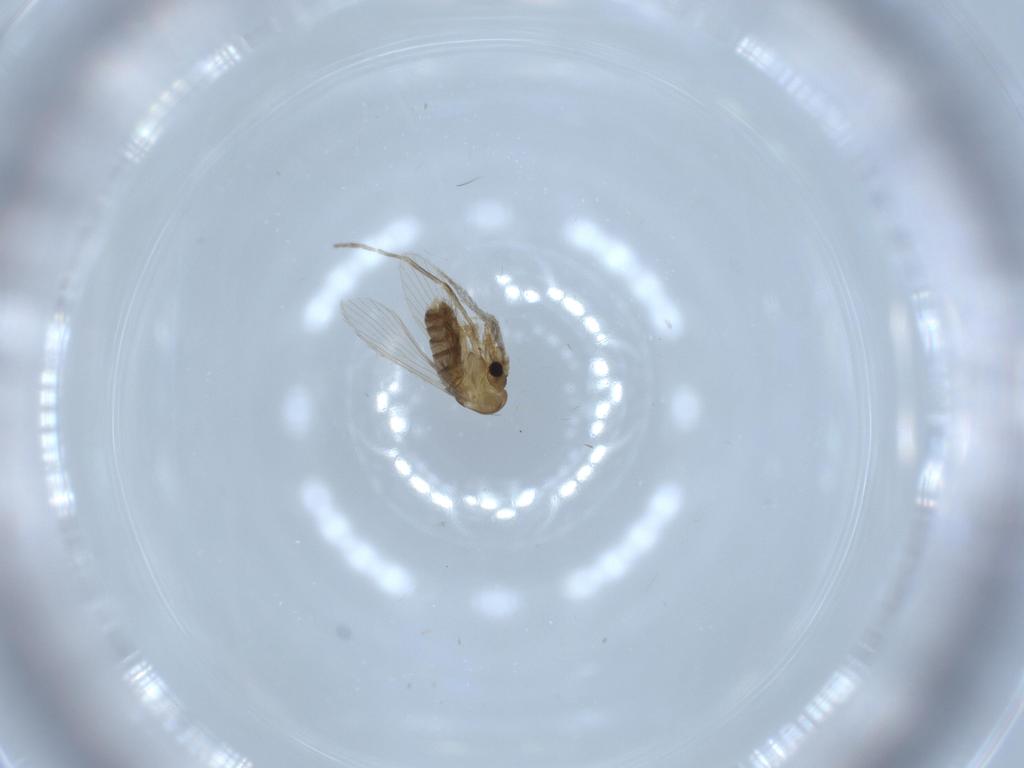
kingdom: Animalia
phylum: Arthropoda
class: Insecta
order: Diptera
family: Psychodidae
